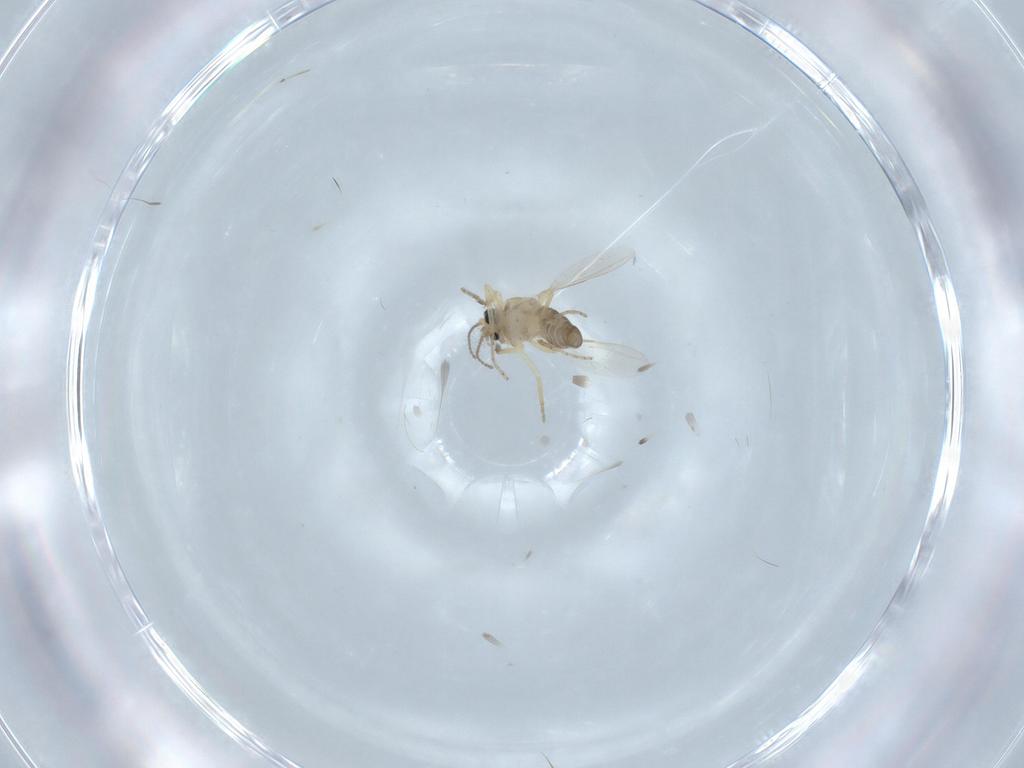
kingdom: Animalia
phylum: Arthropoda
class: Insecta
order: Diptera
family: Ceratopogonidae
